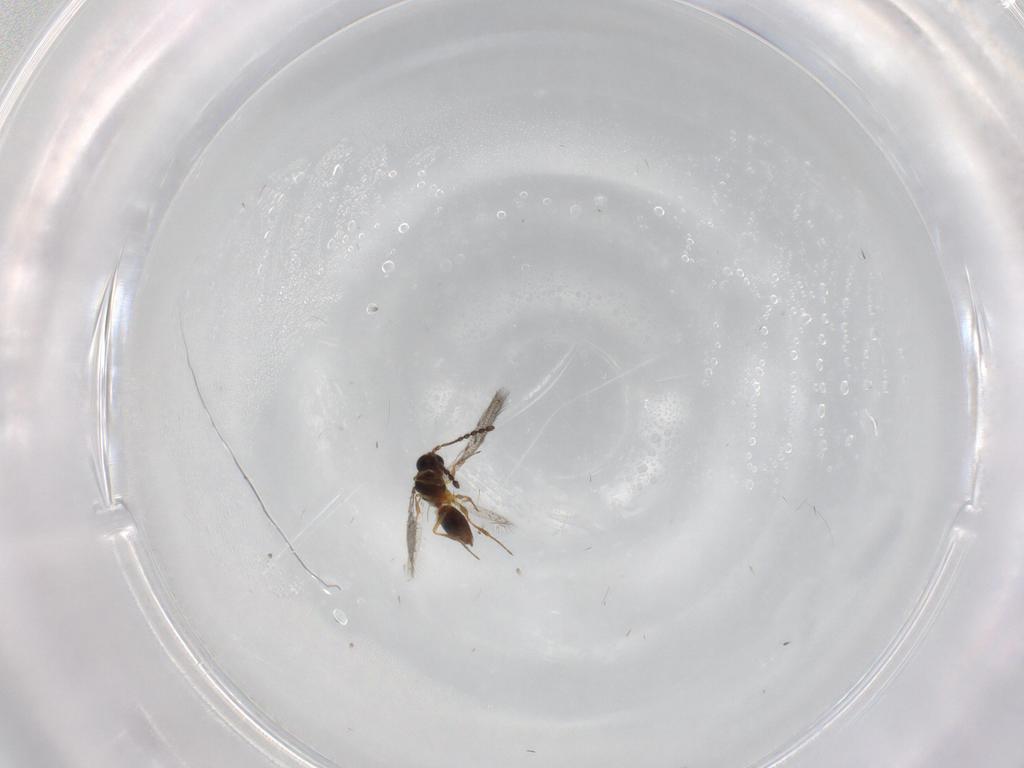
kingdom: Animalia
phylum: Arthropoda
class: Insecta
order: Hymenoptera
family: Figitidae
